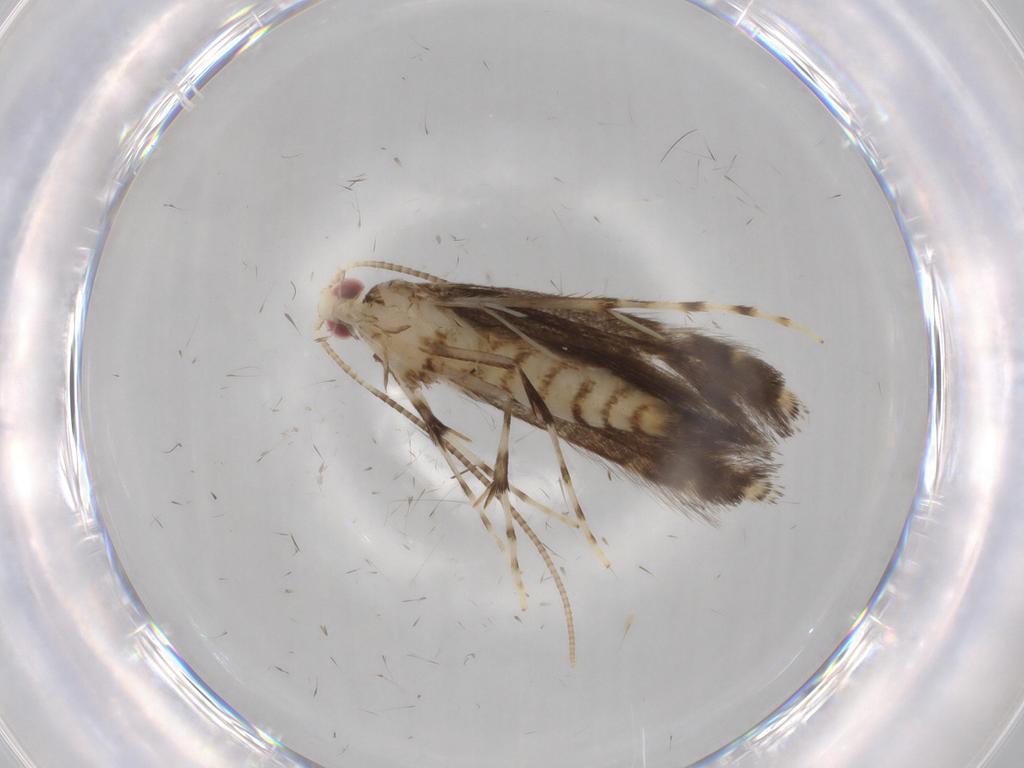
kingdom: Animalia
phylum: Arthropoda
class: Insecta
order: Lepidoptera
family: Gracillariidae
